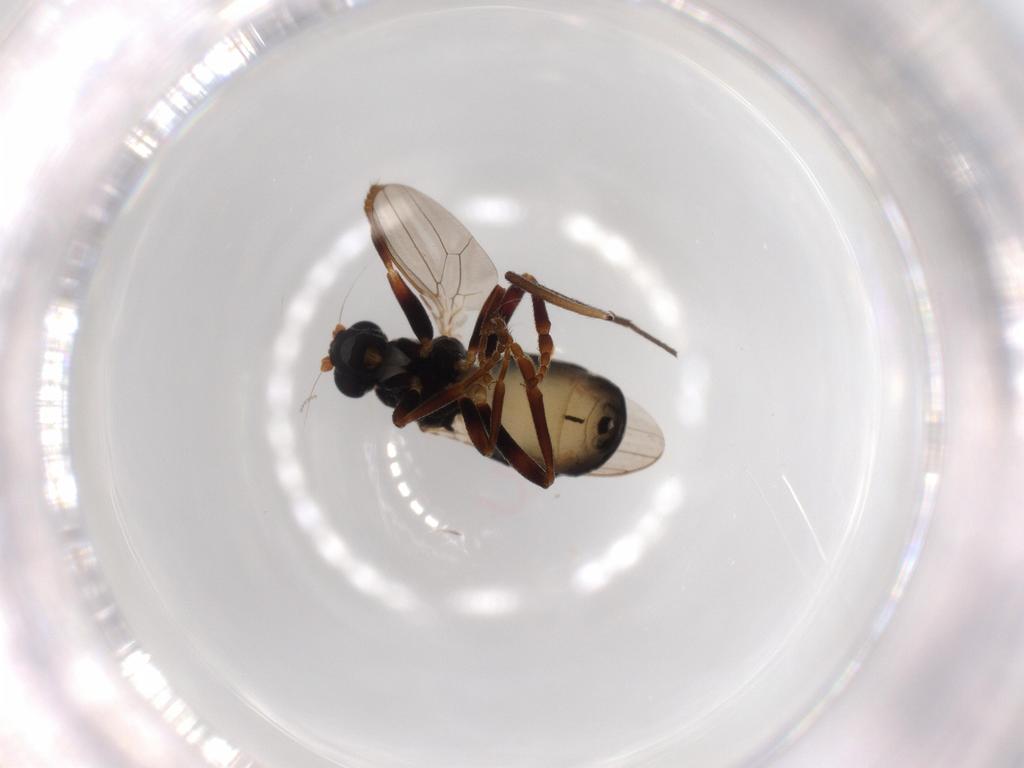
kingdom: Animalia
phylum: Arthropoda
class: Insecta
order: Diptera
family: Sphaeroceridae
